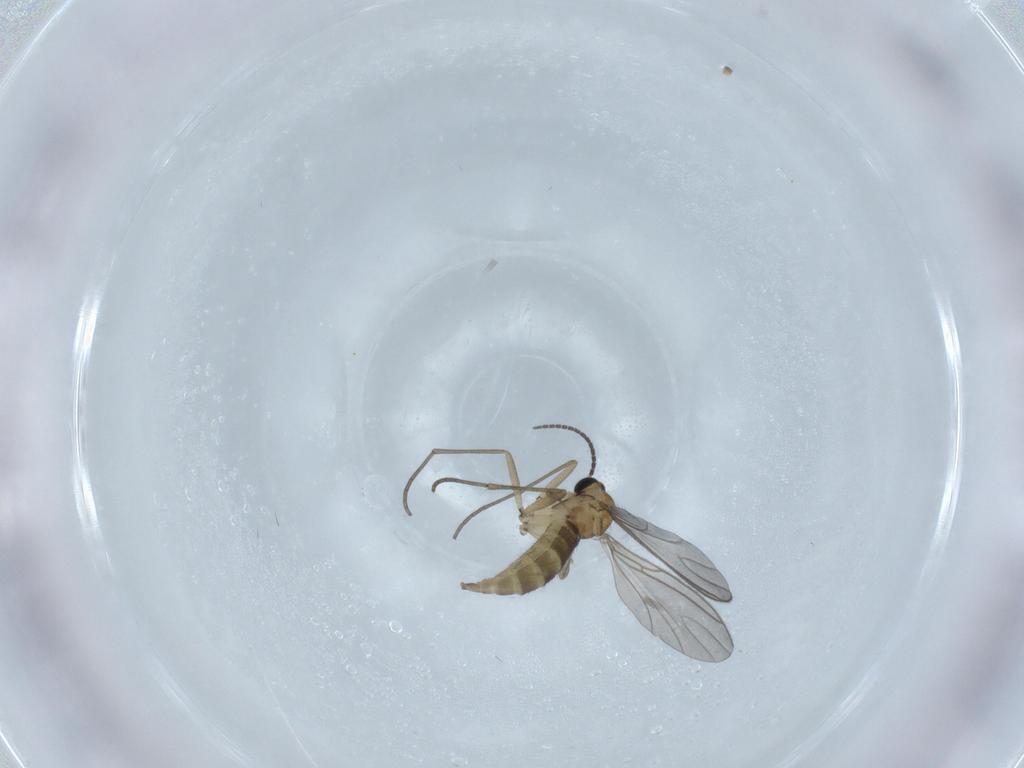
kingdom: Animalia
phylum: Arthropoda
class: Insecta
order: Diptera
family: Sciaridae
